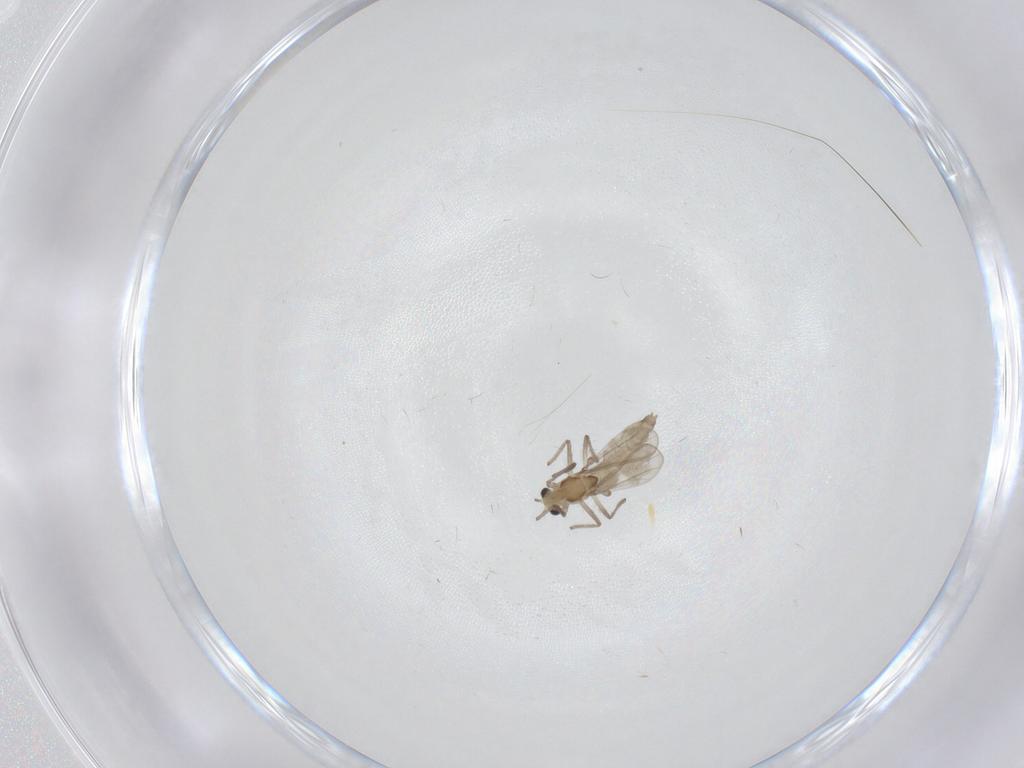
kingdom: Animalia
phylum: Arthropoda
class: Insecta
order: Diptera
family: Chironomidae
